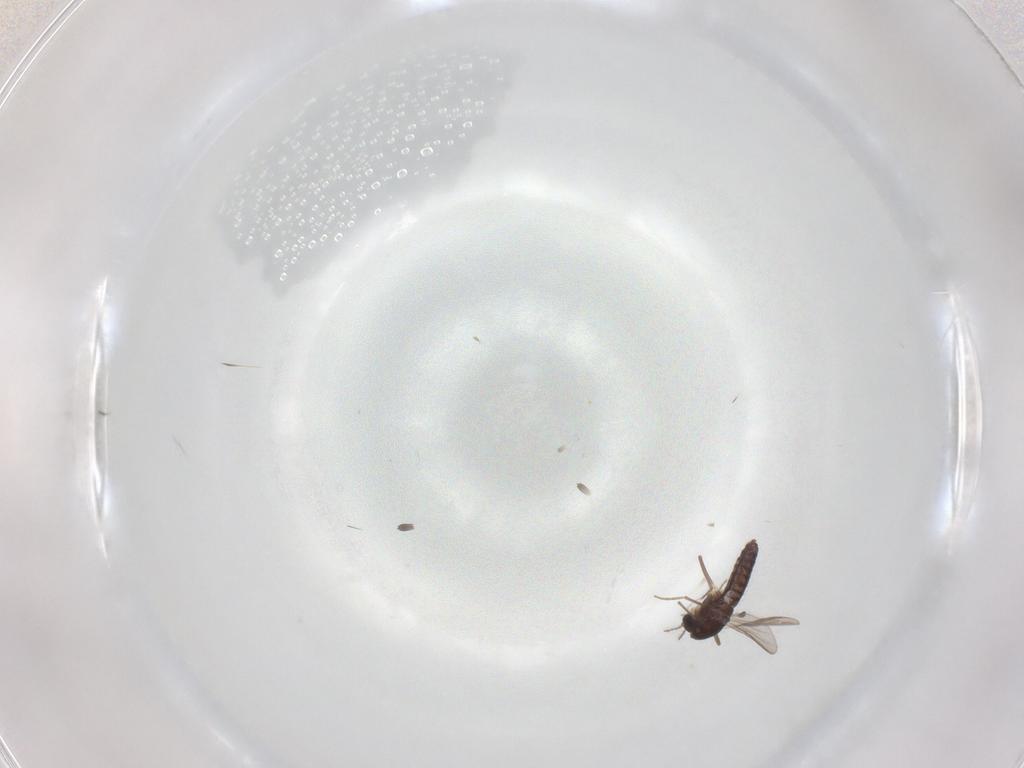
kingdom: Animalia
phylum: Arthropoda
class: Insecta
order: Diptera
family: Chironomidae
